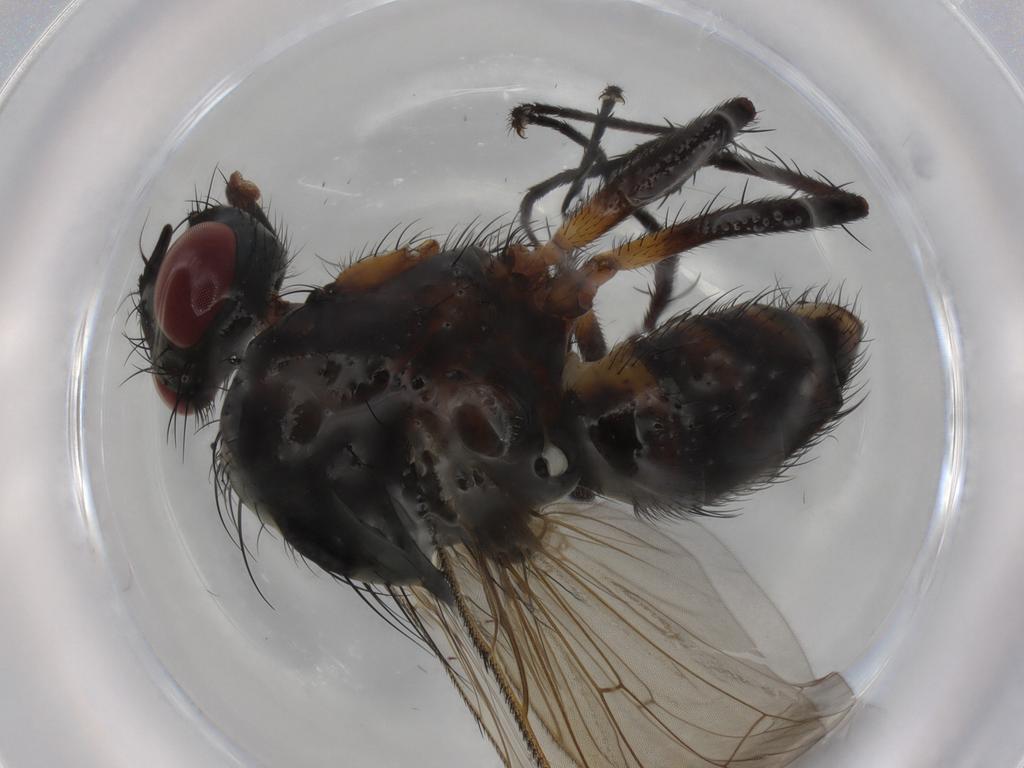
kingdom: Animalia
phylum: Arthropoda
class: Insecta
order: Diptera
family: Anthomyiidae
